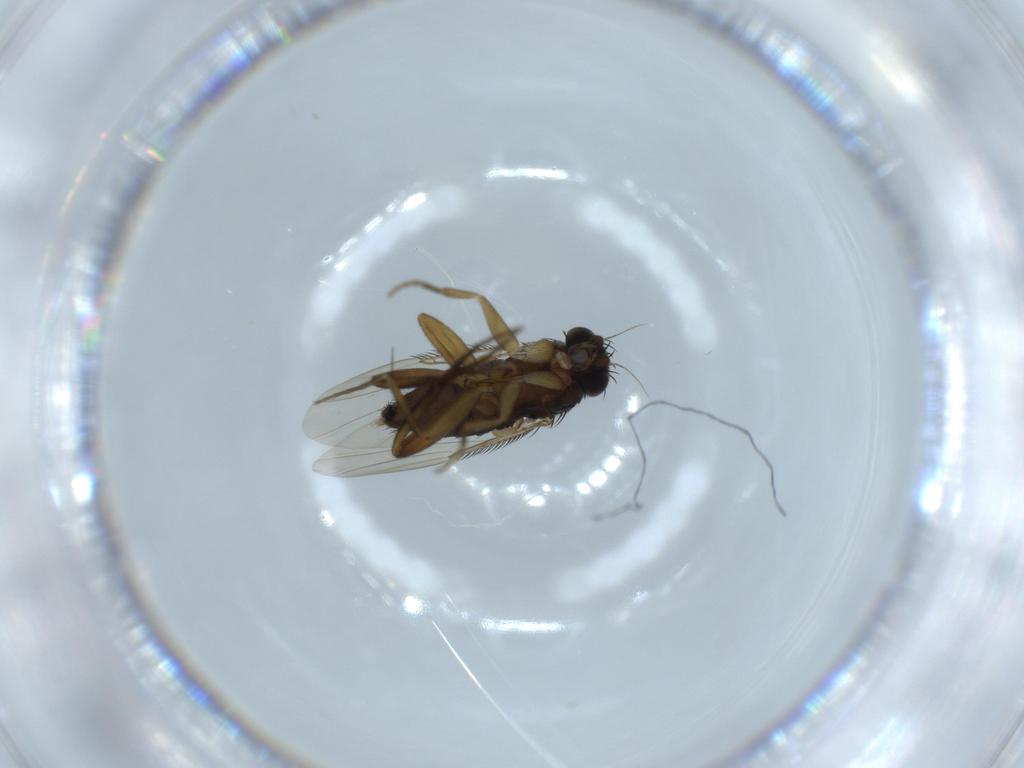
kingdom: Animalia
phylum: Arthropoda
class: Insecta
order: Diptera
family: Phoridae
